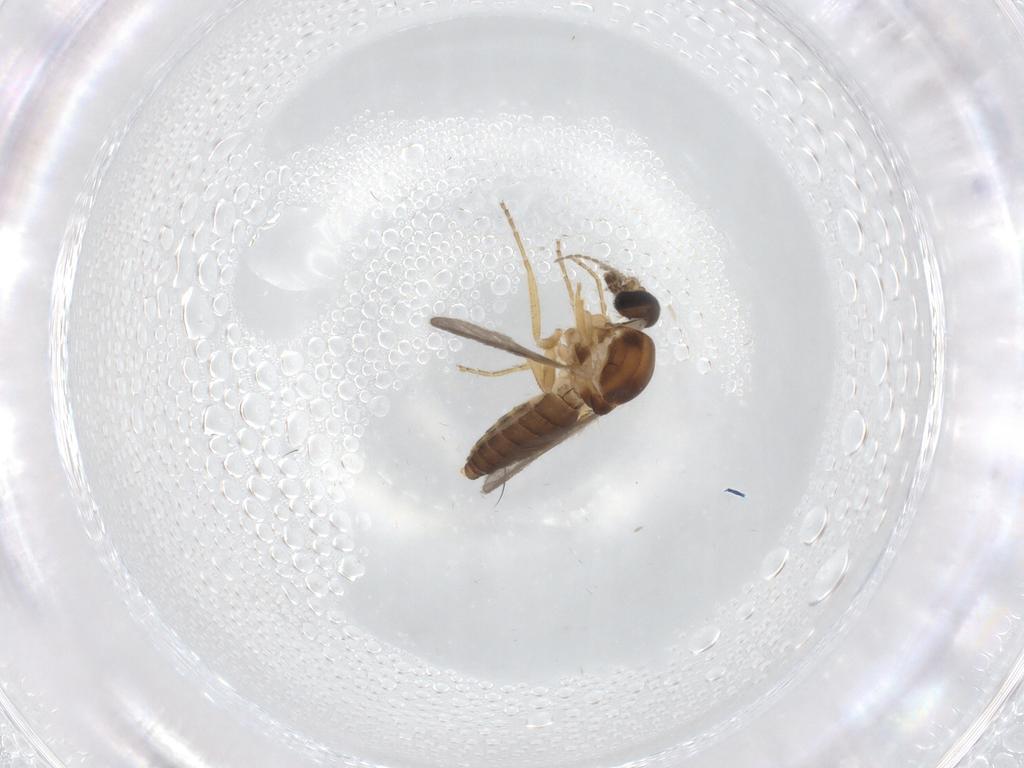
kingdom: Animalia
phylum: Arthropoda
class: Insecta
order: Diptera
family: Ceratopogonidae
